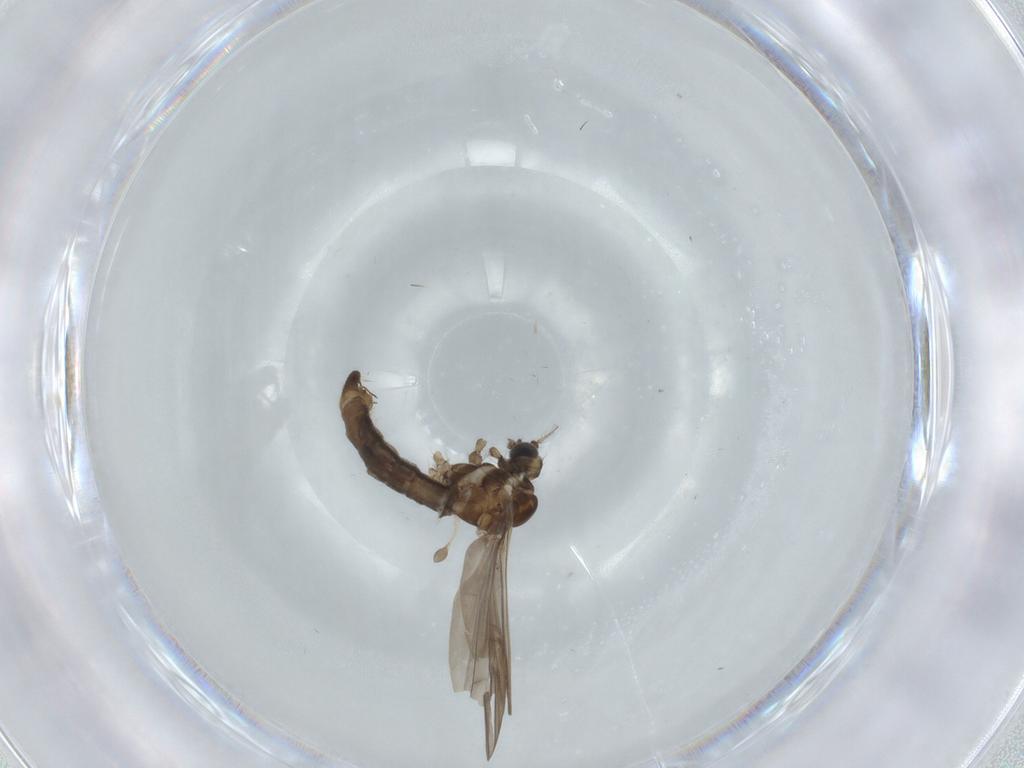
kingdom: Animalia
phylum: Arthropoda
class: Insecta
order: Diptera
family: Limoniidae
